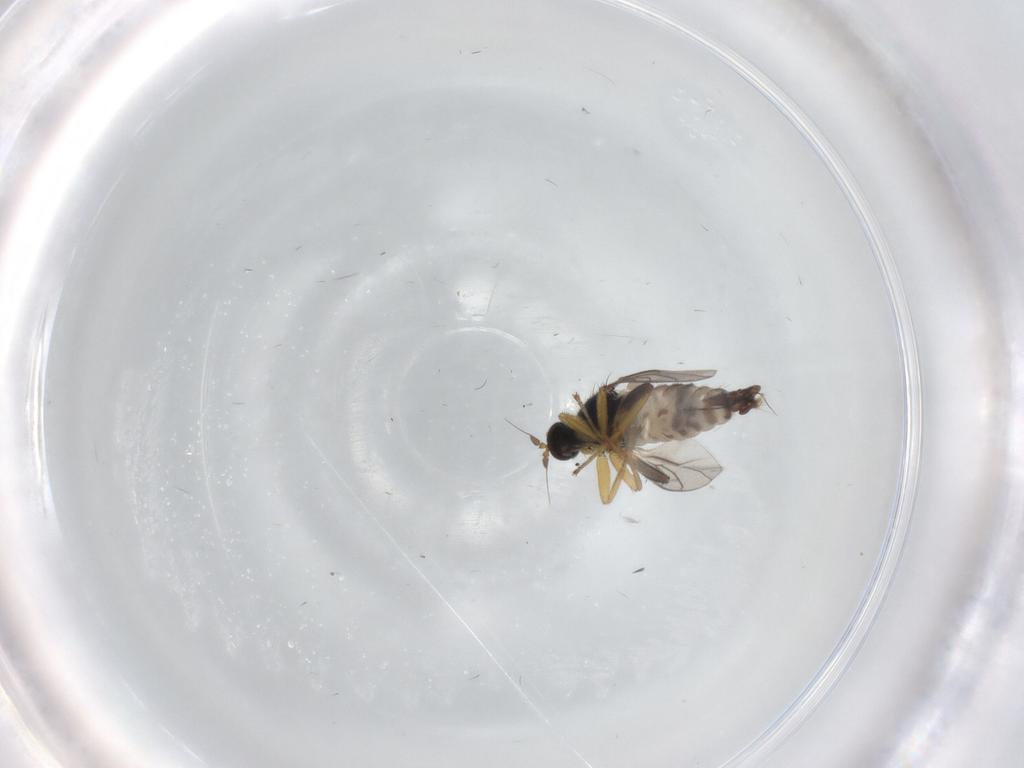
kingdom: Animalia
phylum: Arthropoda
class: Insecta
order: Diptera
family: Hybotidae
